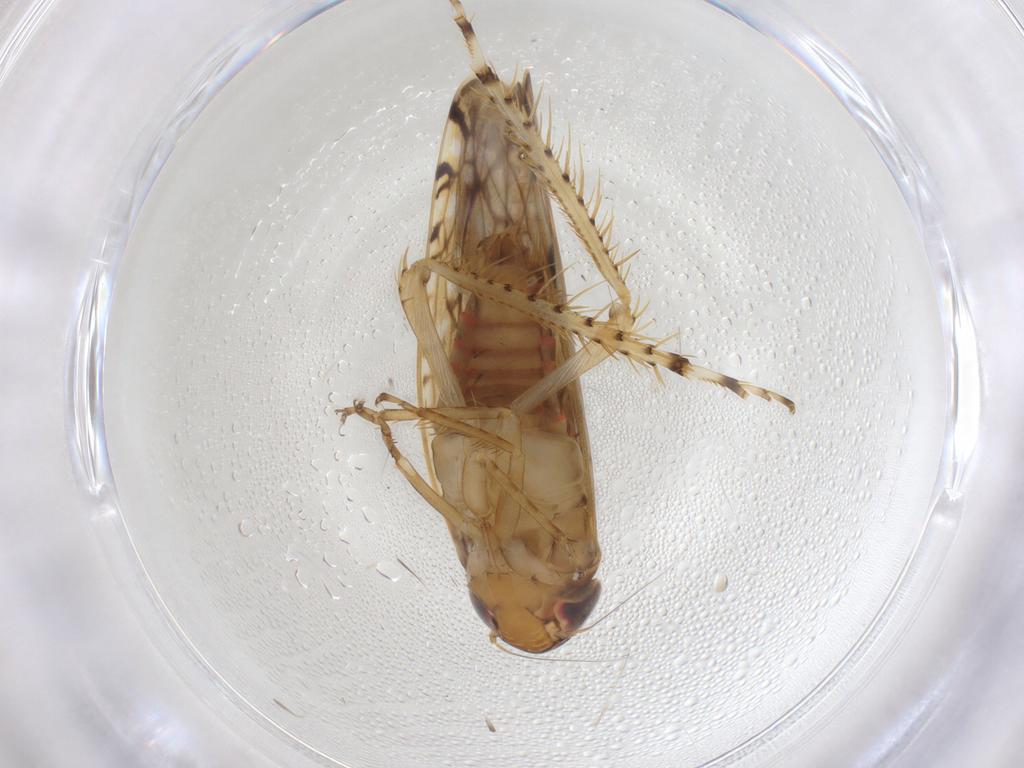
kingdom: Animalia
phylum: Arthropoda
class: Insecta
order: Hemiptera
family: Cicadellidae
